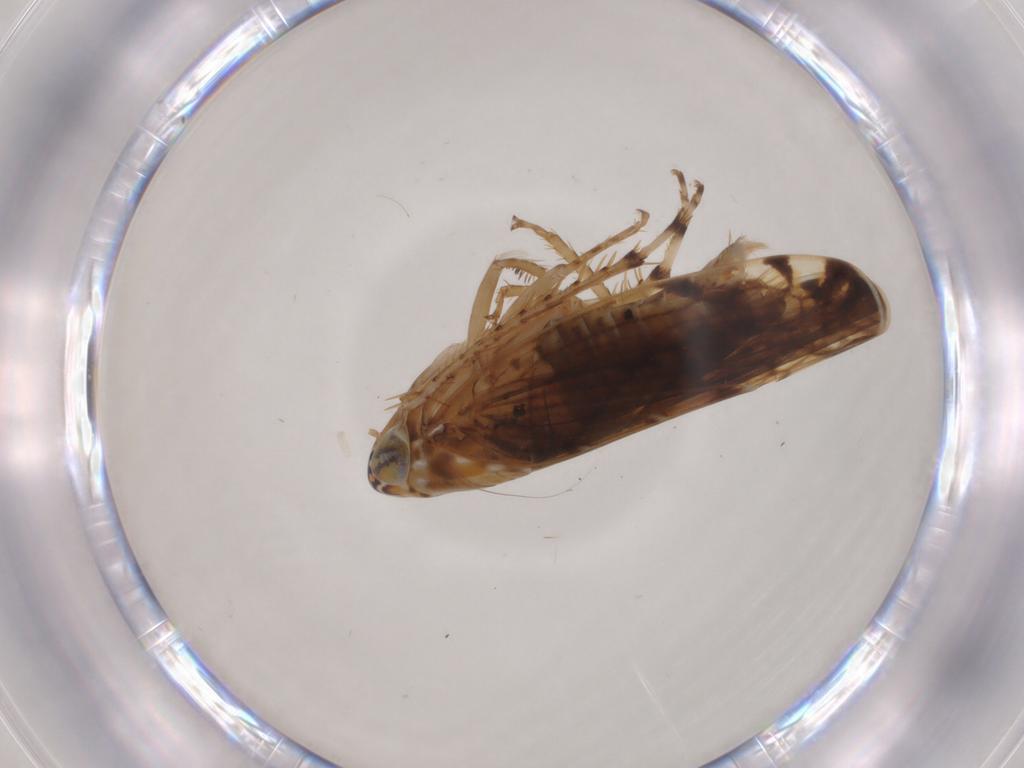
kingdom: Animalia
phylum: Arthropoda
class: Insecta
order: Hemiptera
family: Cicadellidae
